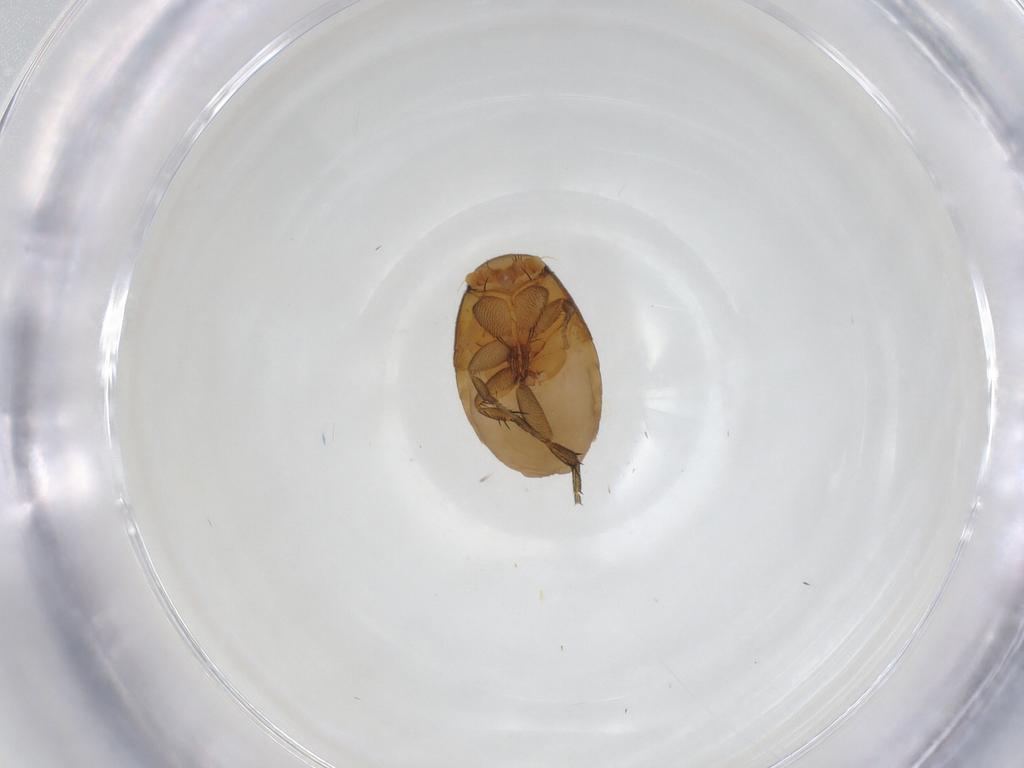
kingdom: Animalia
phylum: Arthropoda
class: Insecta
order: Diptera
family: Phoridae
